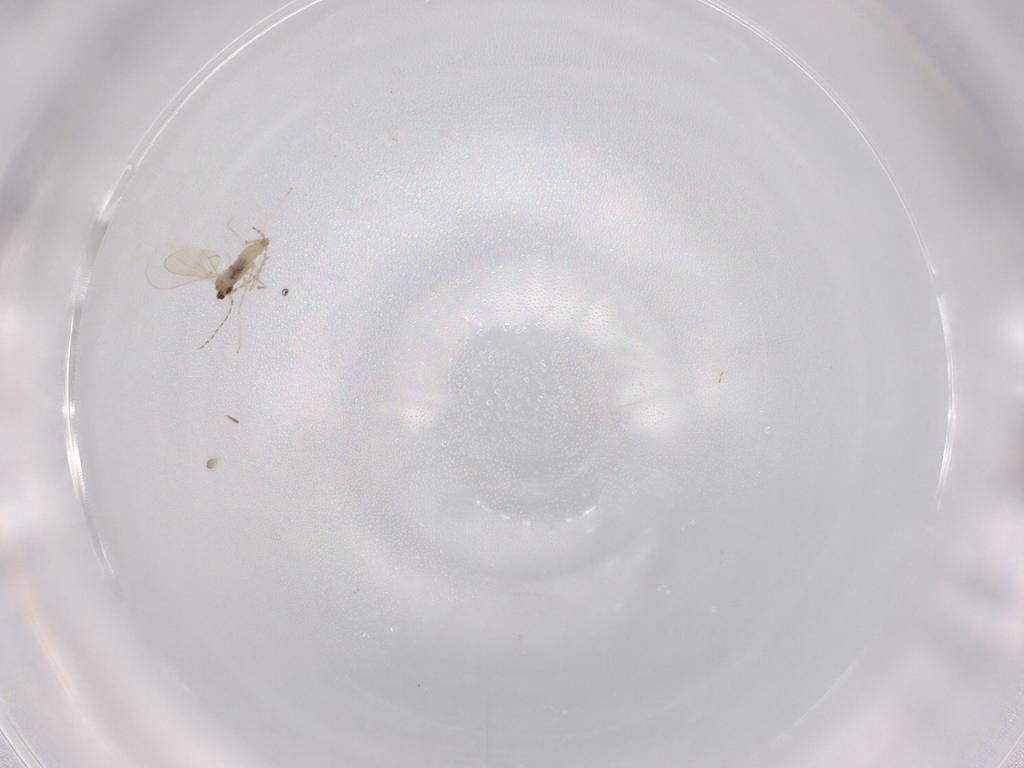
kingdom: Animalia
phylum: Arthropoda
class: Insecta
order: Diptera
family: Cecidomyiidae
